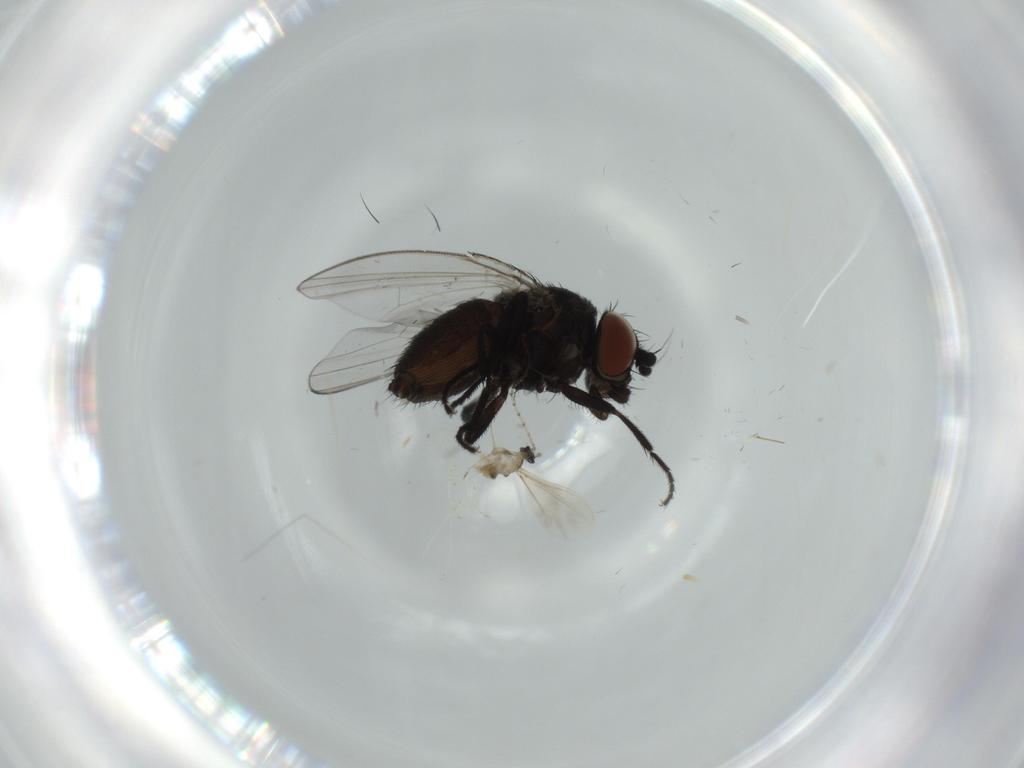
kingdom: Animalia
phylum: Arthropoda
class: Insecta
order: Diptera
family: Milichiidae
